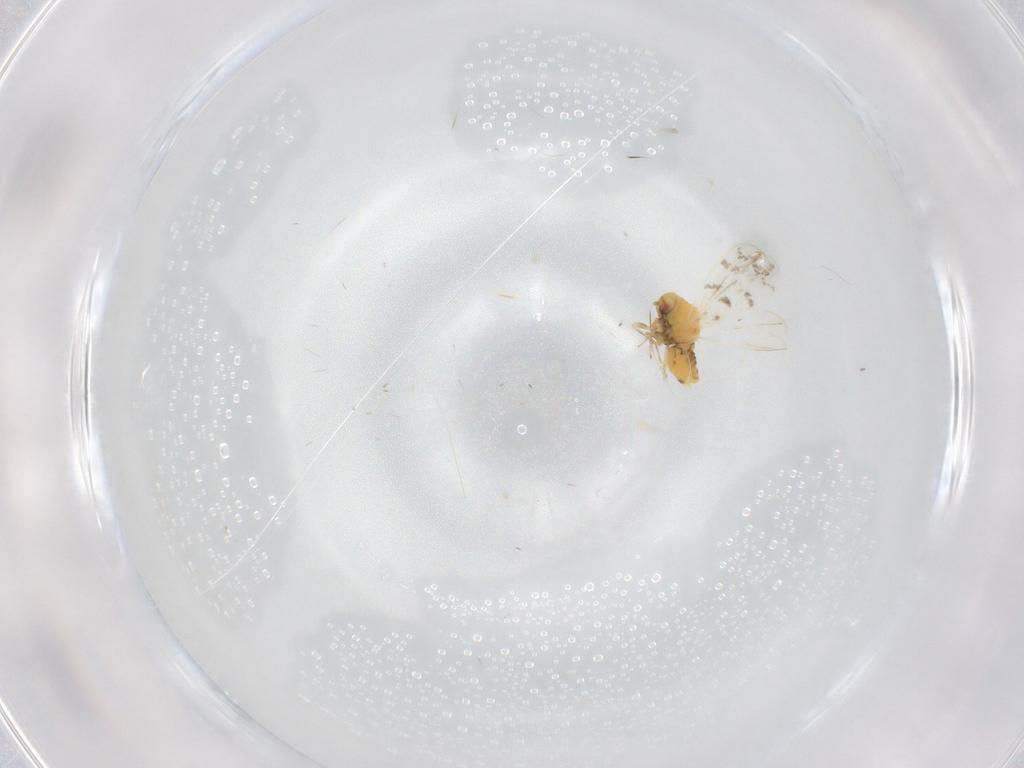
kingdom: Animalia
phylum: Arthropoda
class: Insecta
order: Hemiptera
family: Aleyrodidae
